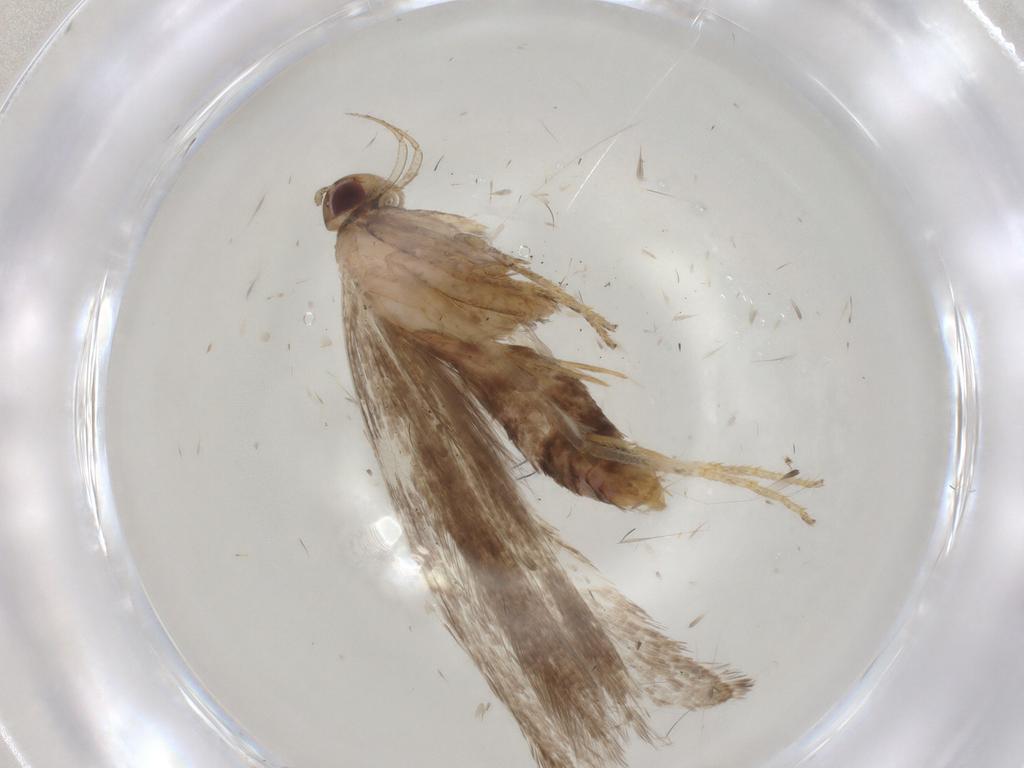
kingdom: Animalia
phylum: Arthropoda
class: Insecta
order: Lepidoptera
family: Gelechiidae
